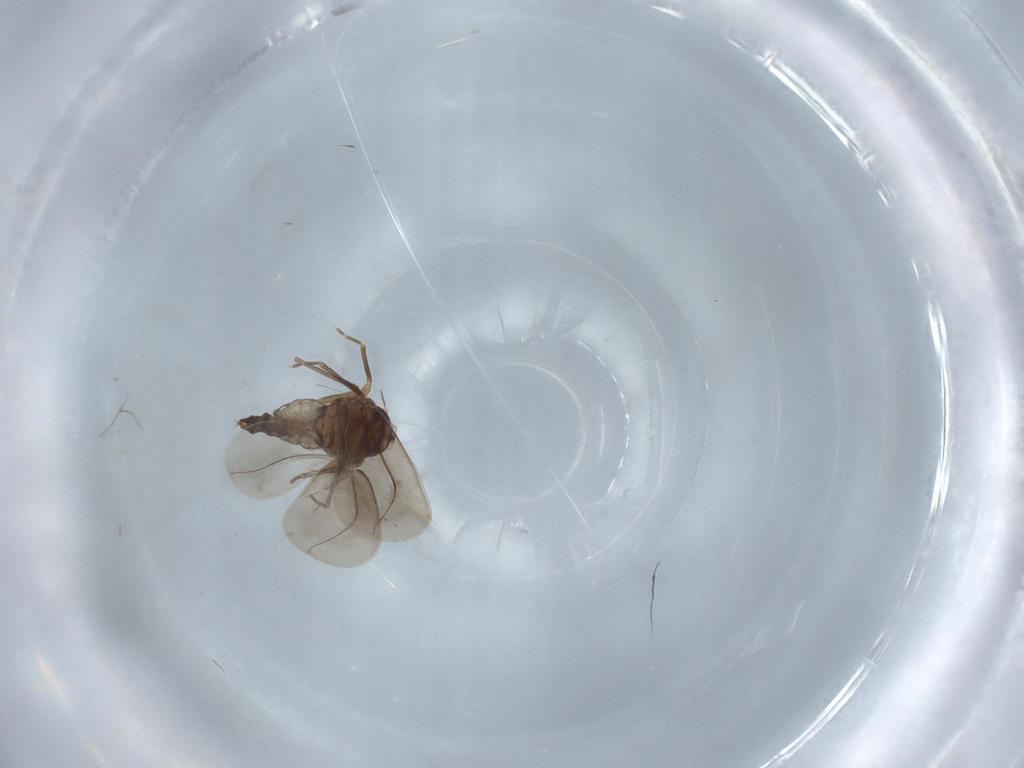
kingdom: Animalia
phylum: Arthropoda
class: Insecta
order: Hemiptera
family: Aleyrodidae
